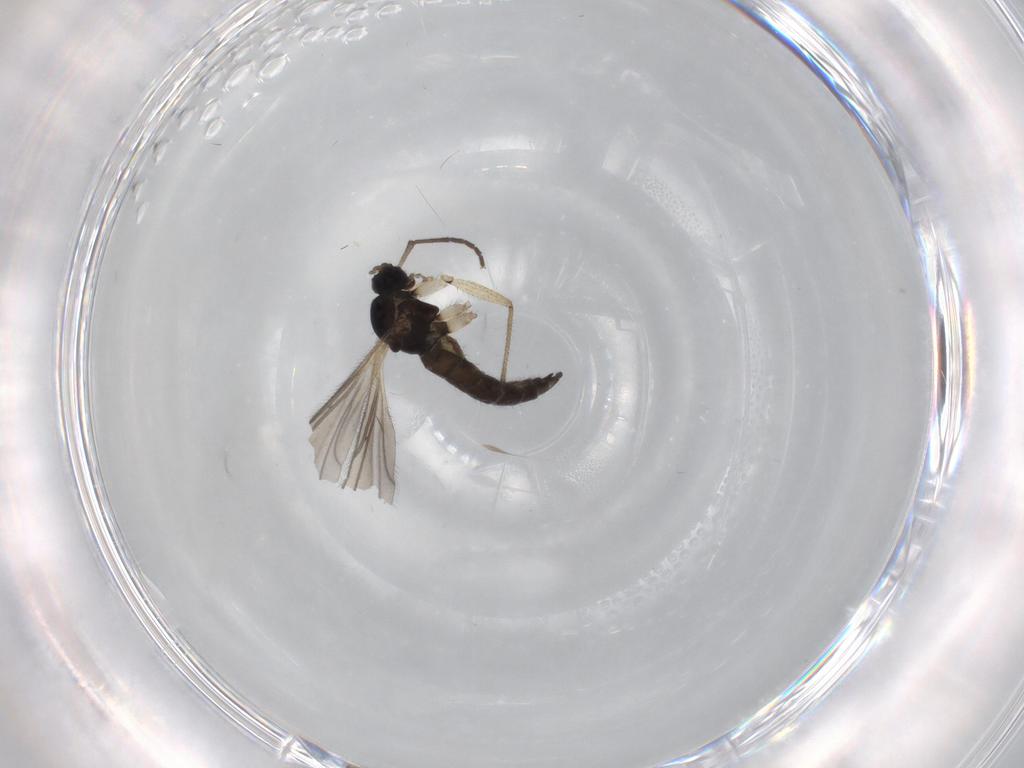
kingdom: Animalia
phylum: Arthropoda
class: Insecta
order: Diptera
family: Sciaridae
